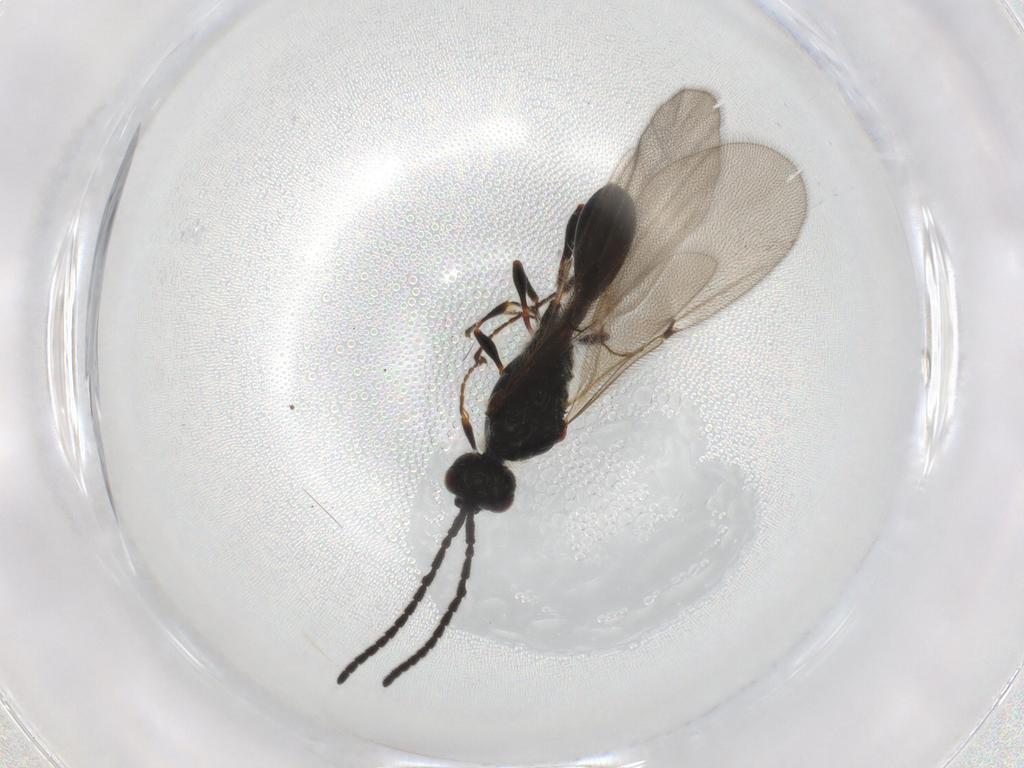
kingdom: Animalia
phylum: Arthropoda
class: Insecta
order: Hymenoptera
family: Diapriidae
